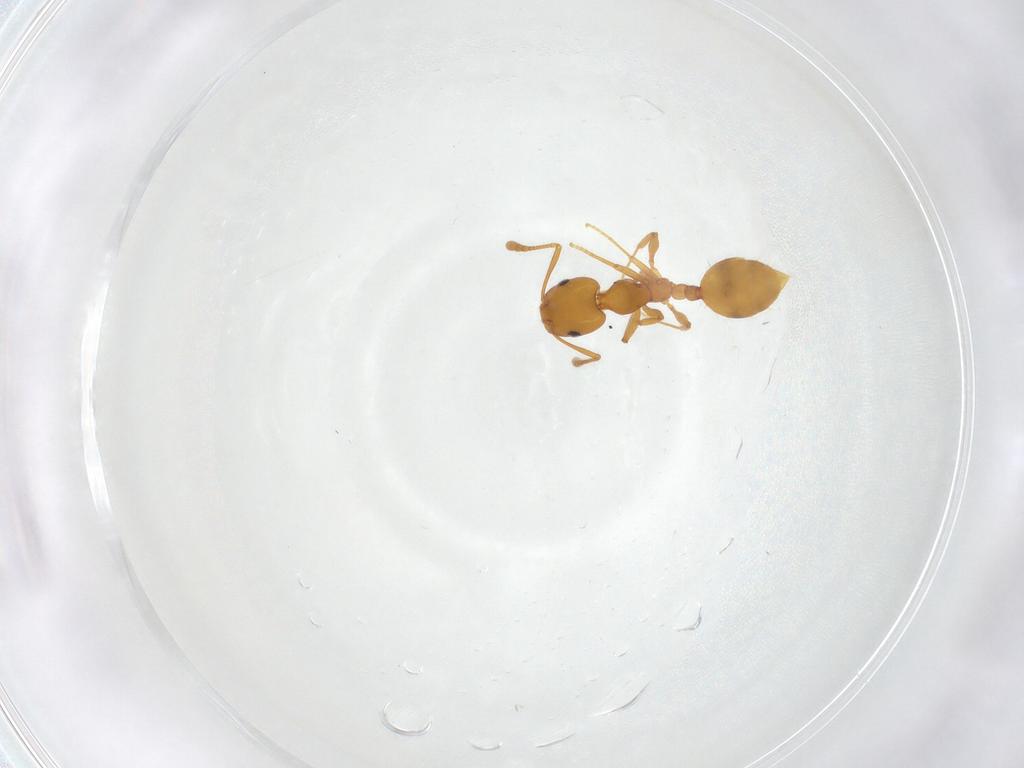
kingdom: Animalia
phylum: Arthropoda
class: Insecta
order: Hymenoptera
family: Formicidae
